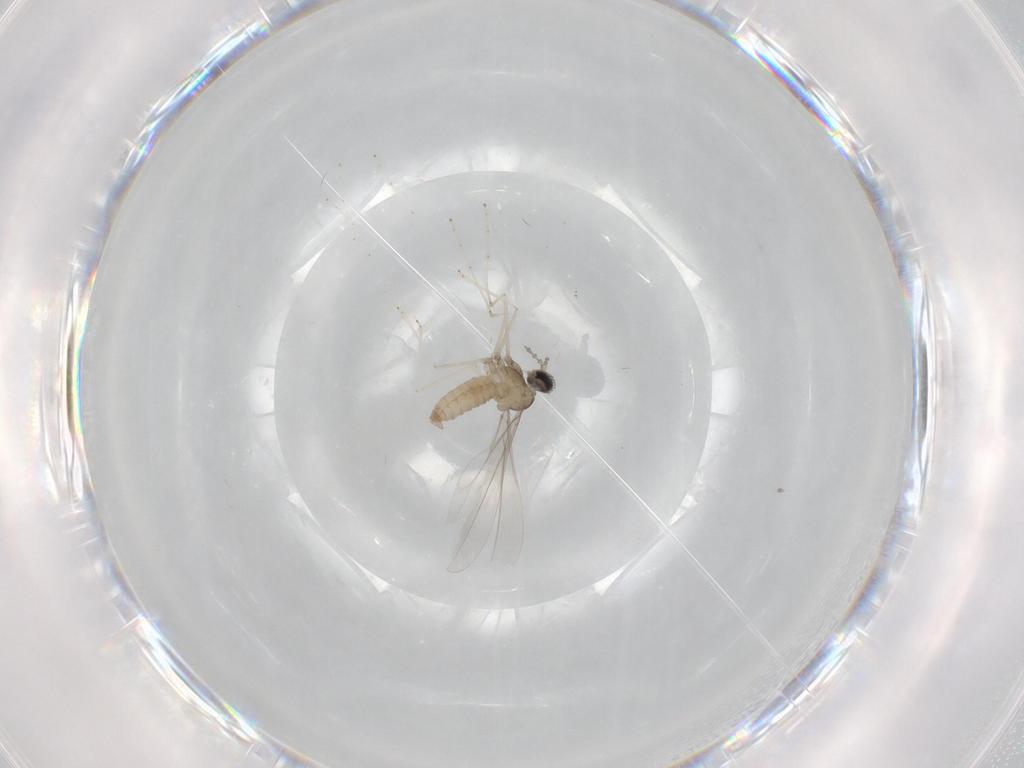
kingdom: Animalia
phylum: Arthropoda
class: Insecta
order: Diptera
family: Cecidomyiidae
